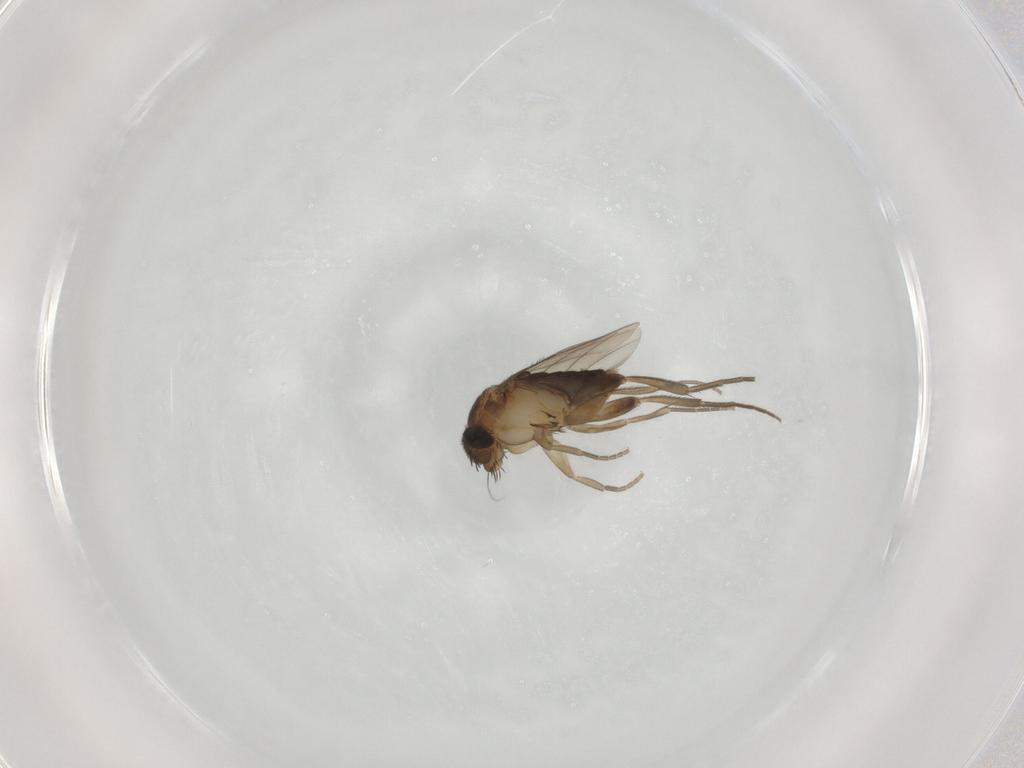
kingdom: Animalia
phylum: Arthropoda
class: Insecta
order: Diptera
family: Phoridae
